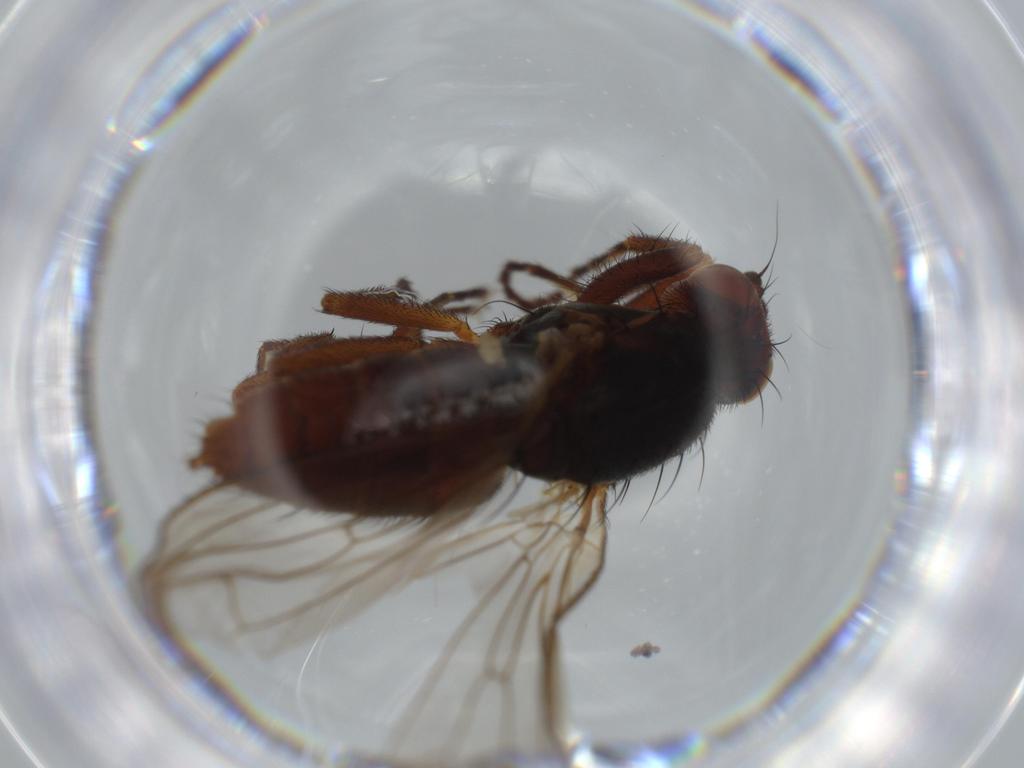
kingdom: Animalia
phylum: Arthropoda
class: Insecta
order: Diptera
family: Heleomyzidae
